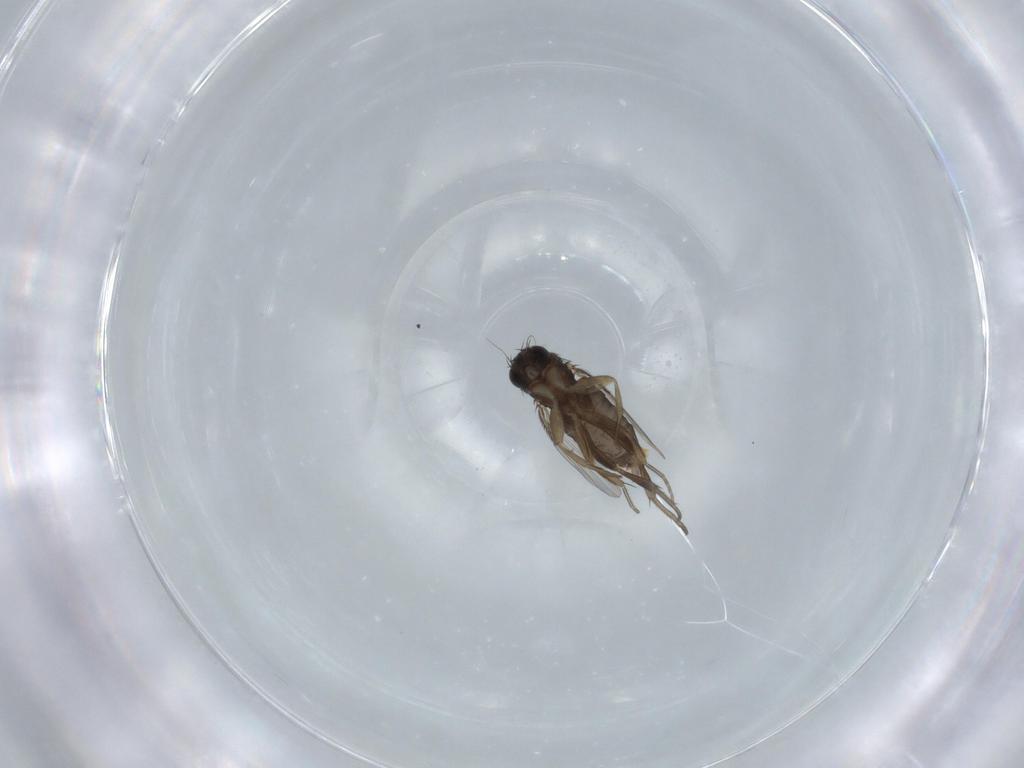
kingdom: Animalia
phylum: Arthropoda
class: Insecta
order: Diptera
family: Phoridae
